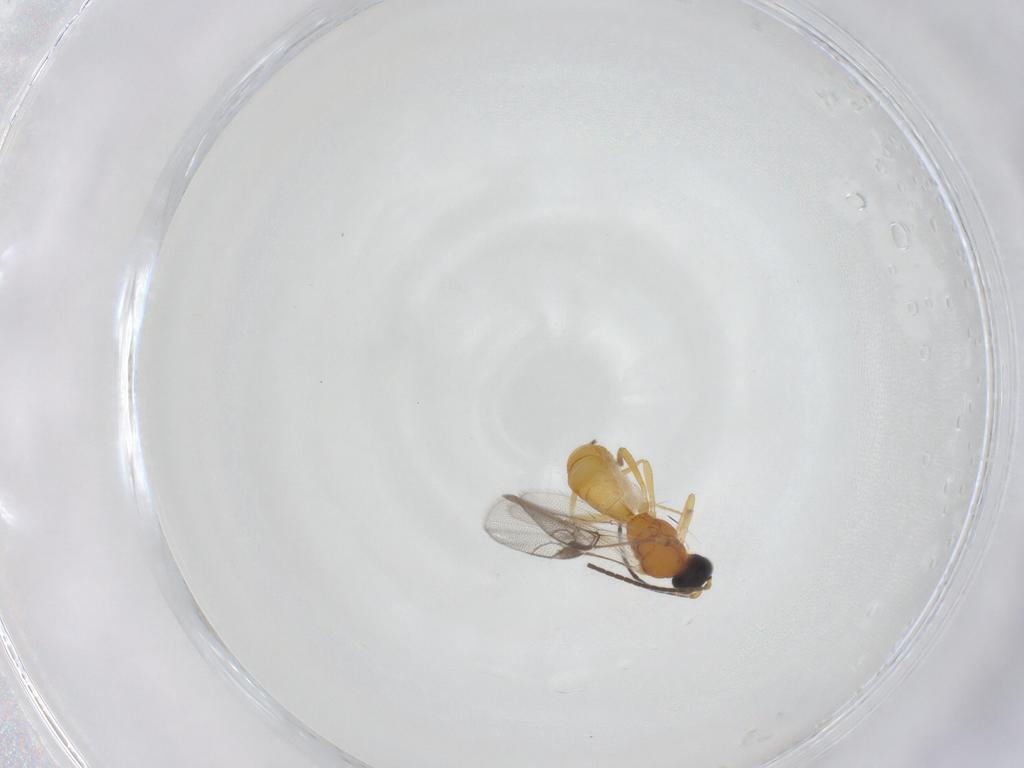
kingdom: Animalia
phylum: Arthropoda
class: Insecta
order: Hymenoptera
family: Braconidae
